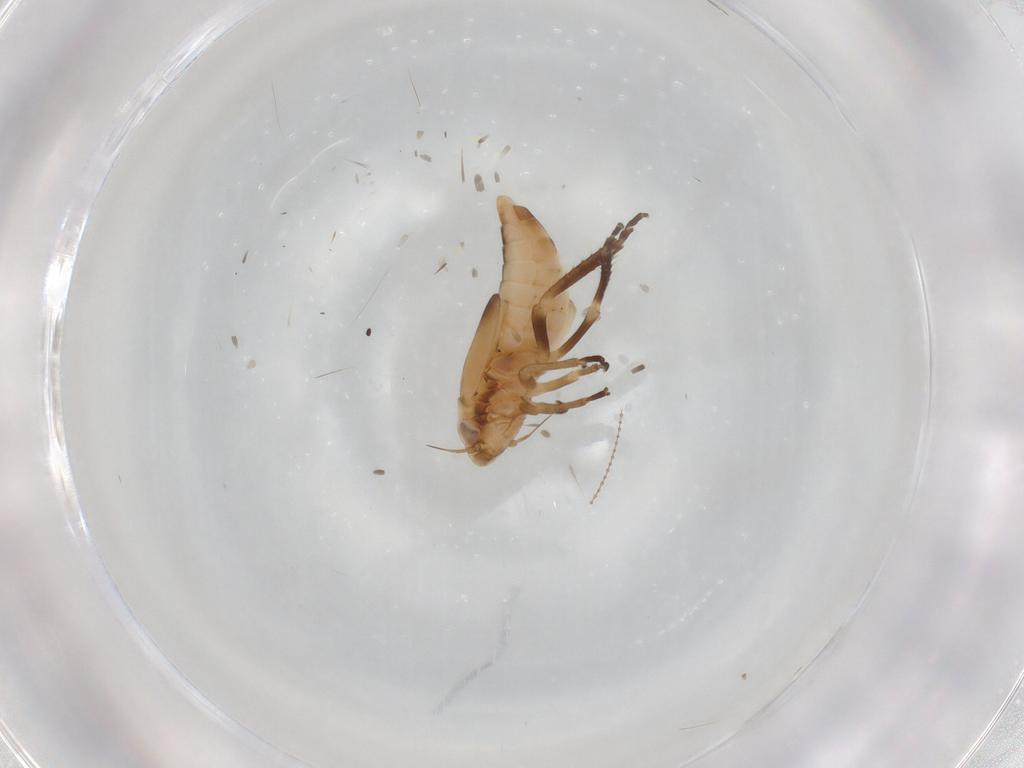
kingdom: Animalia
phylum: Arthropoda
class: Insecta
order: Hemiptera
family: Cicadellidae
